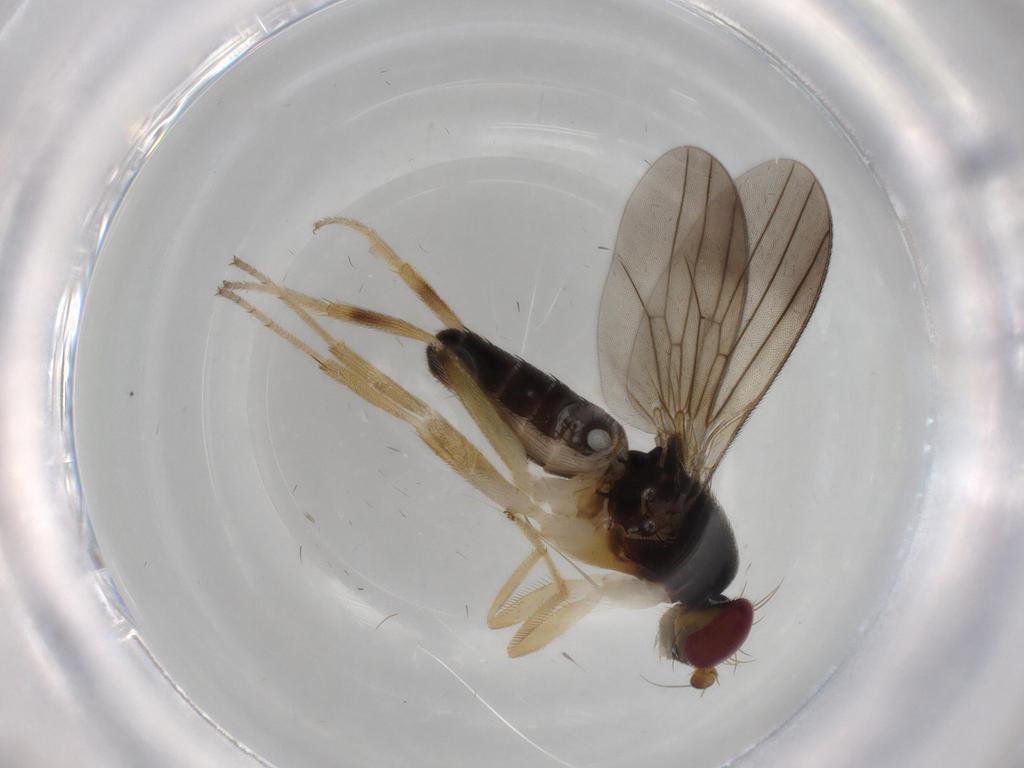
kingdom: Animalia
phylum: Arthropoda
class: Insecta
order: Diptera
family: Clusiidae
